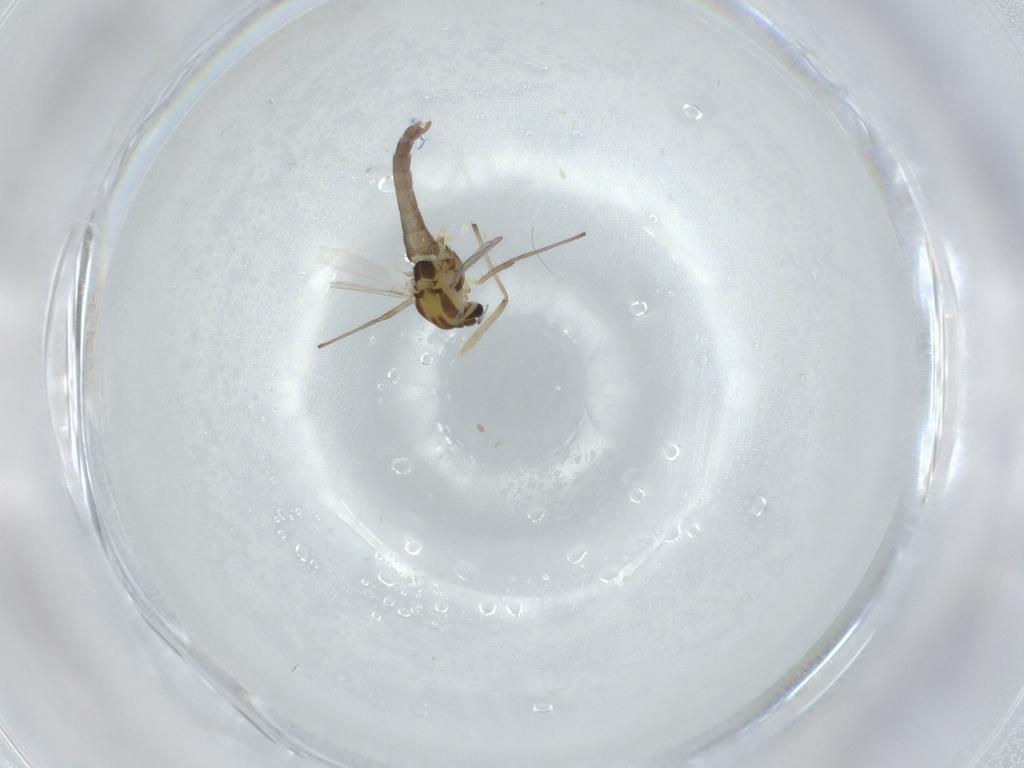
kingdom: Animalia
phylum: Arthropoda
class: Insecta
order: Diptera
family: Chironomidae
